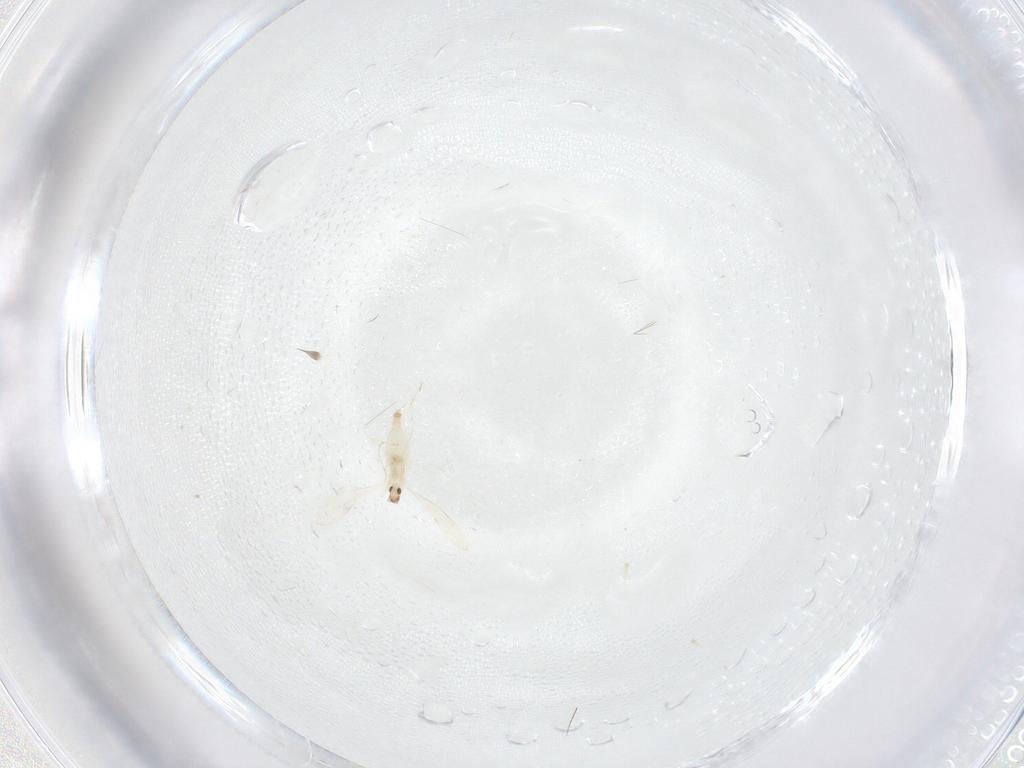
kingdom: Animalia
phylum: Arthropoda
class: Insecta
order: Diptera
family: Cecidomyiidae
